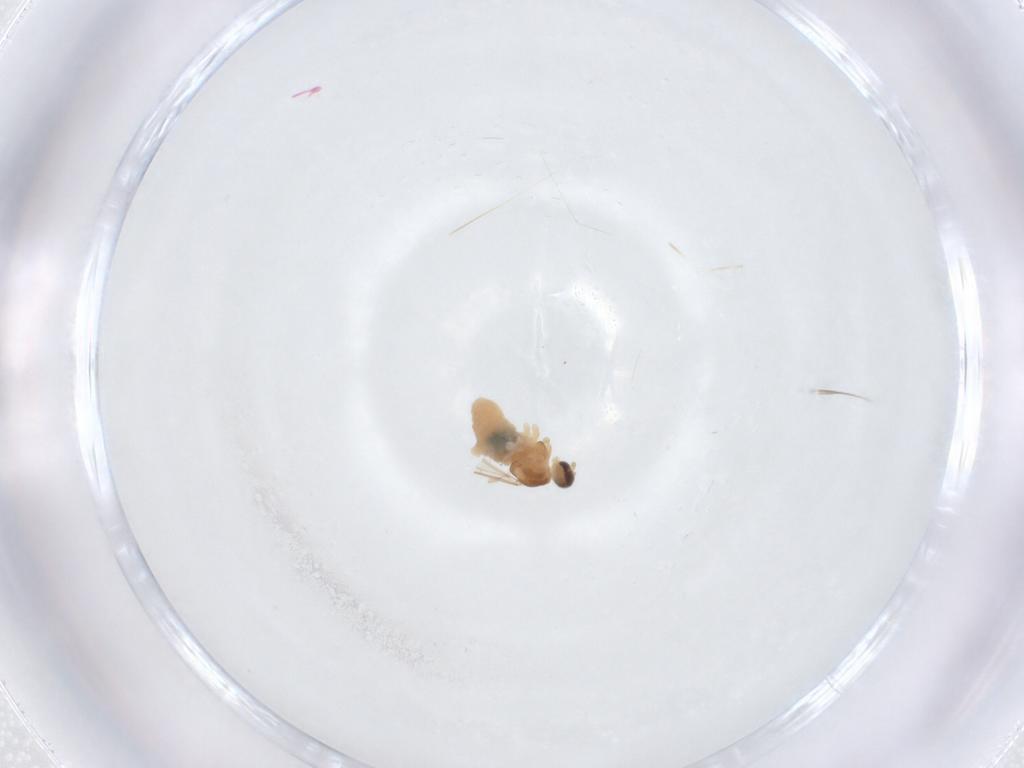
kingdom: Animalia
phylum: Arthropoda
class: Insecta
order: Diptera
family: Cecidomyiidae
